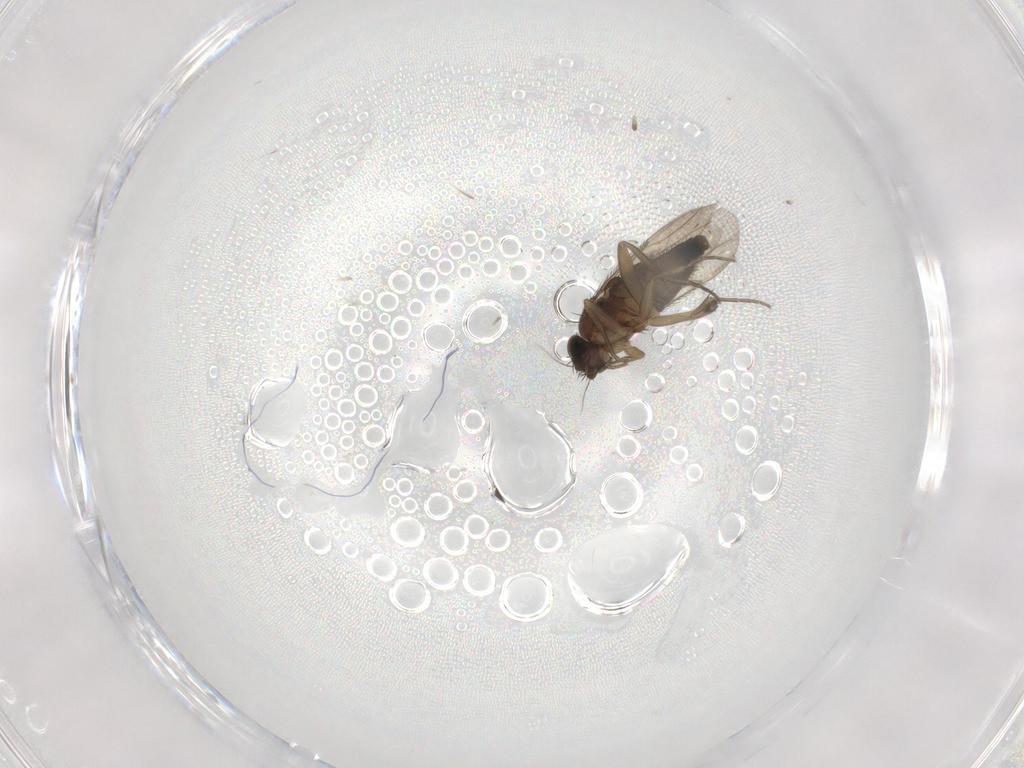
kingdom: Animalia
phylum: Arthropoda
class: Insecta
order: Diptera
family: Phoridae
